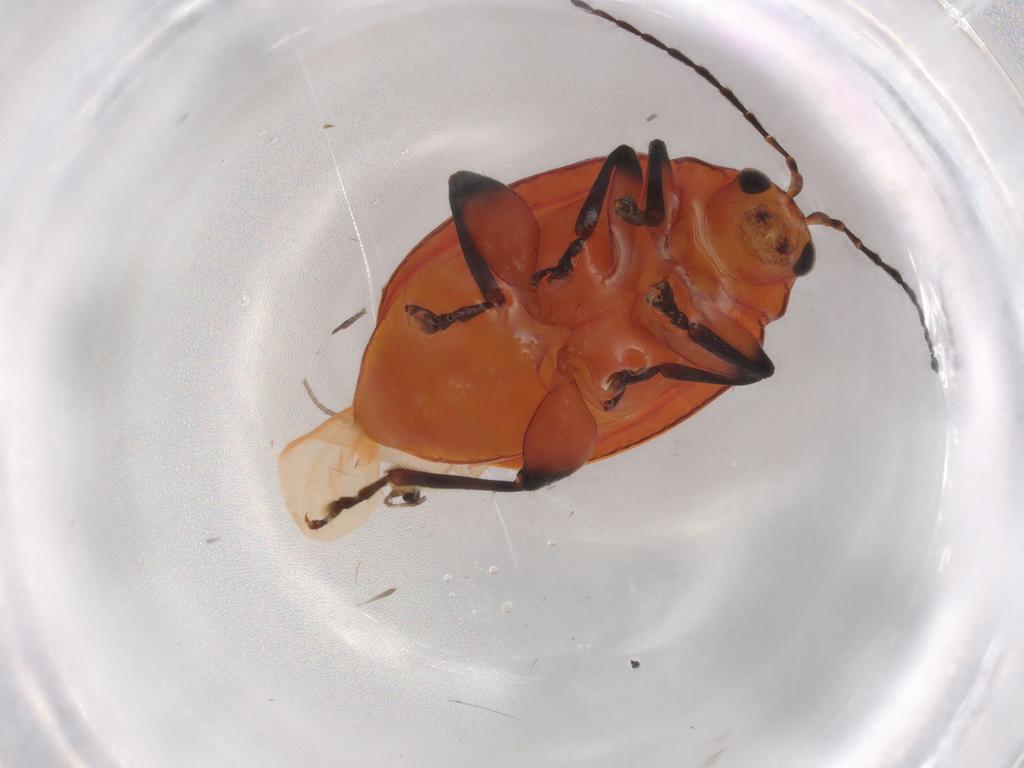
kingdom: Animalia
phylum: Arthropoda
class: Insecta
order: Coleoptera
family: Chrysomelidae
